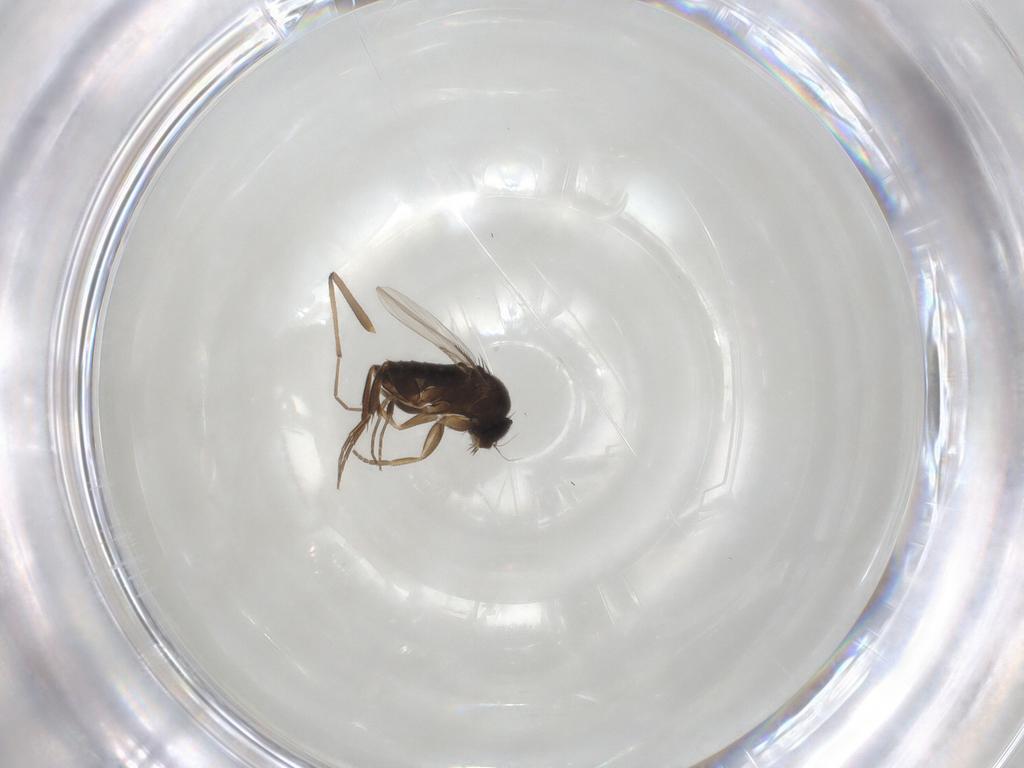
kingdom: Animalia
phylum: Arthropoda
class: Insecta
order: Diptera
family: Phoridae
